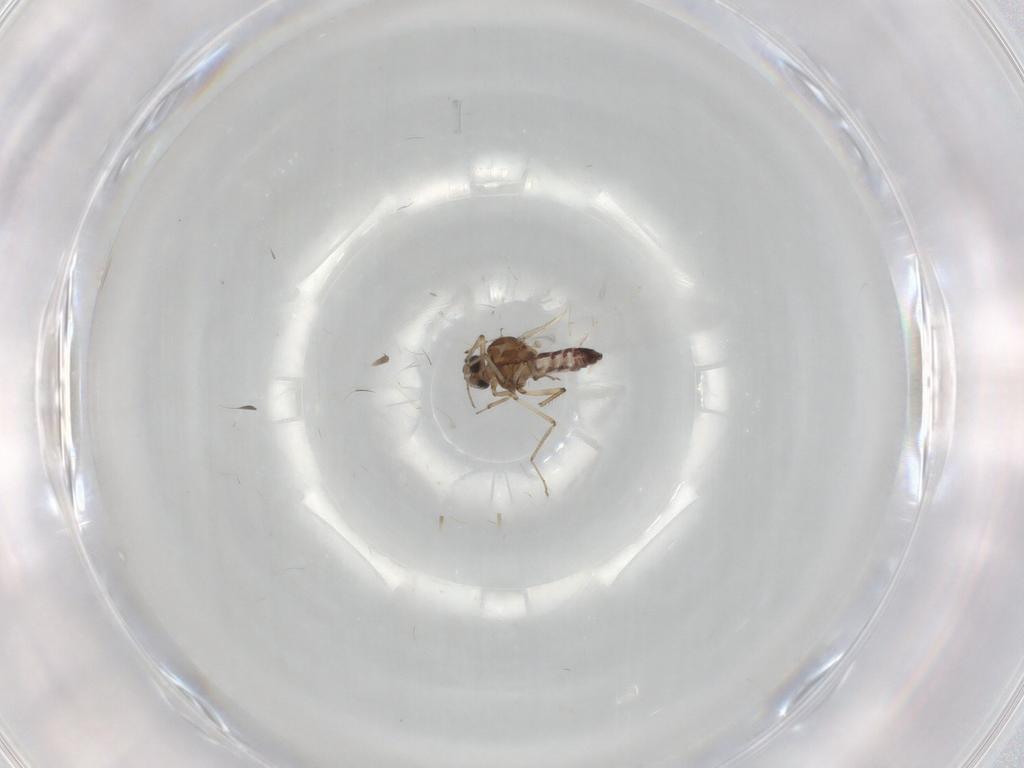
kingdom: Animalia
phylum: Arthropoda
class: Insecta
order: Diptera
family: Ceratopogonidae
